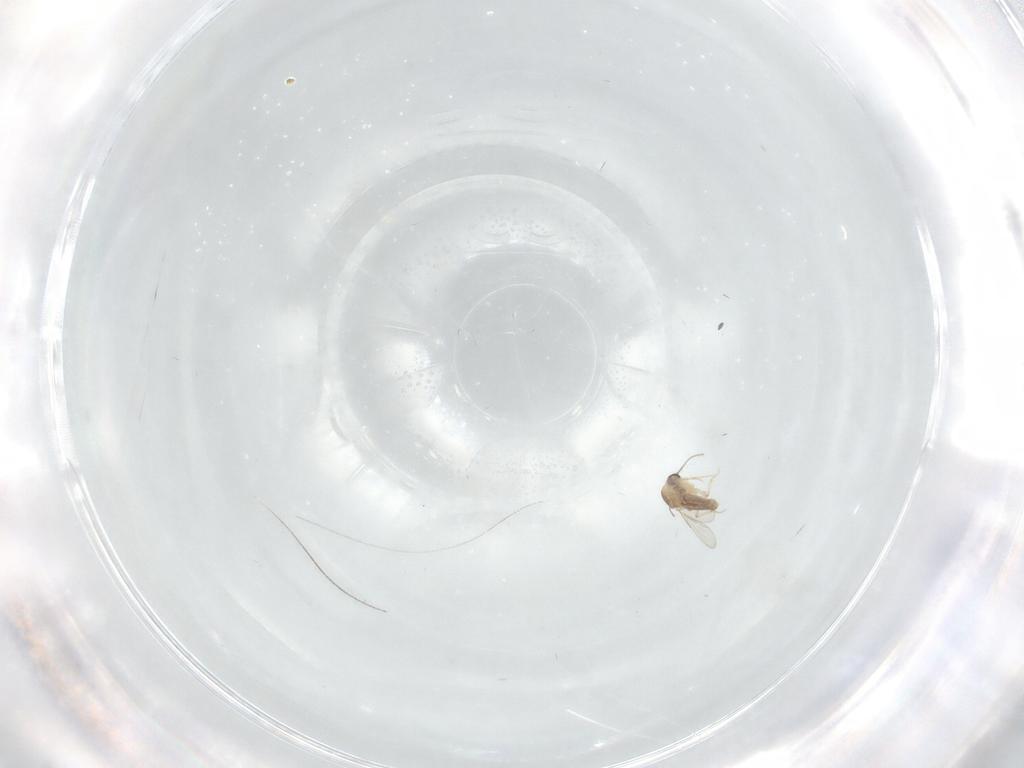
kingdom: Animalia
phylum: Arthropoda
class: Insecta
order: Diptera
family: Ceratopogonidae
